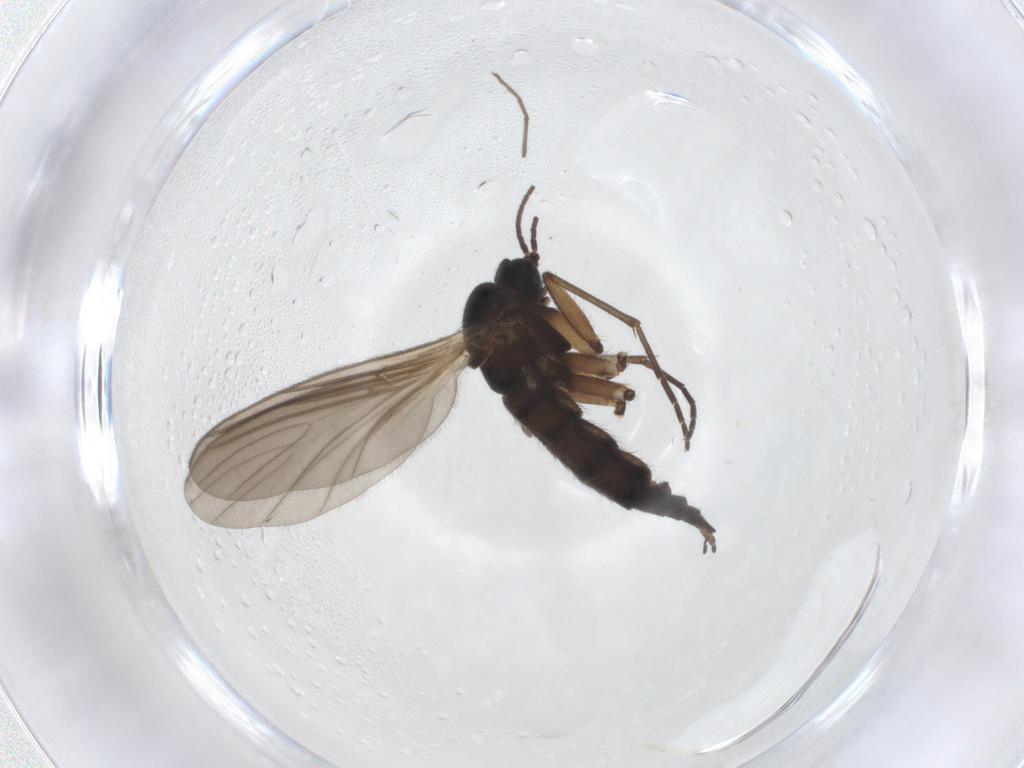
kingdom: Animalia
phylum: Arthropoda
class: Insecta
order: Diptera
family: Sciaridae
